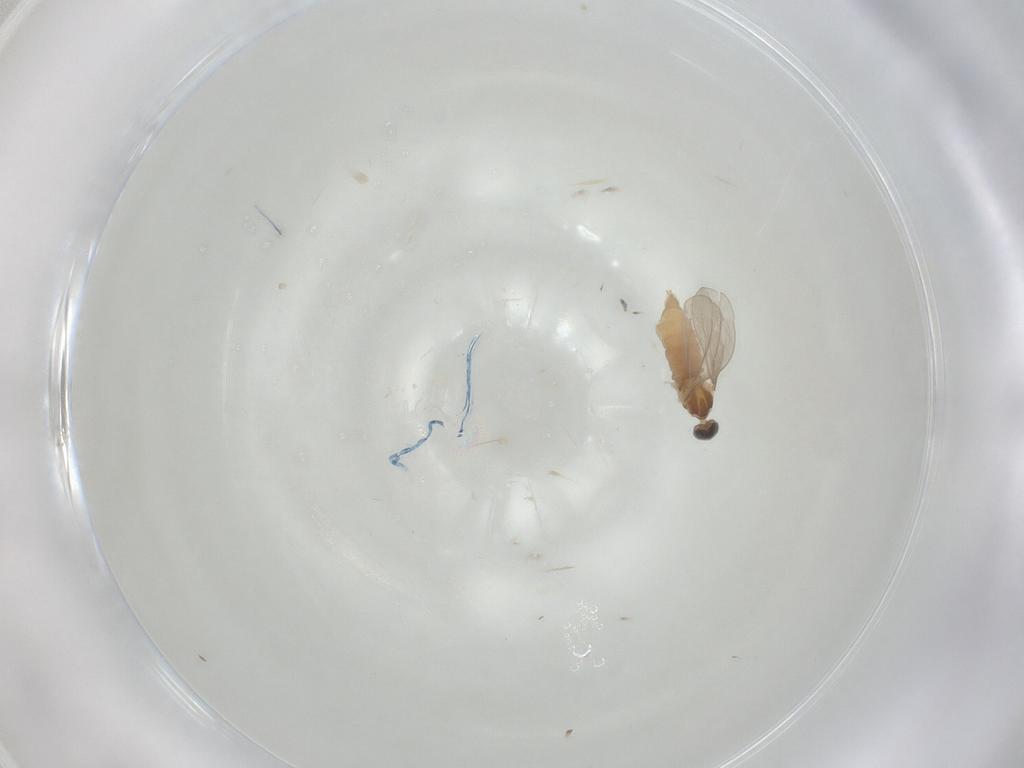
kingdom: Animalia
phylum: Arthropoda
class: Insecta
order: Diptera
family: Cecidomyiidae
